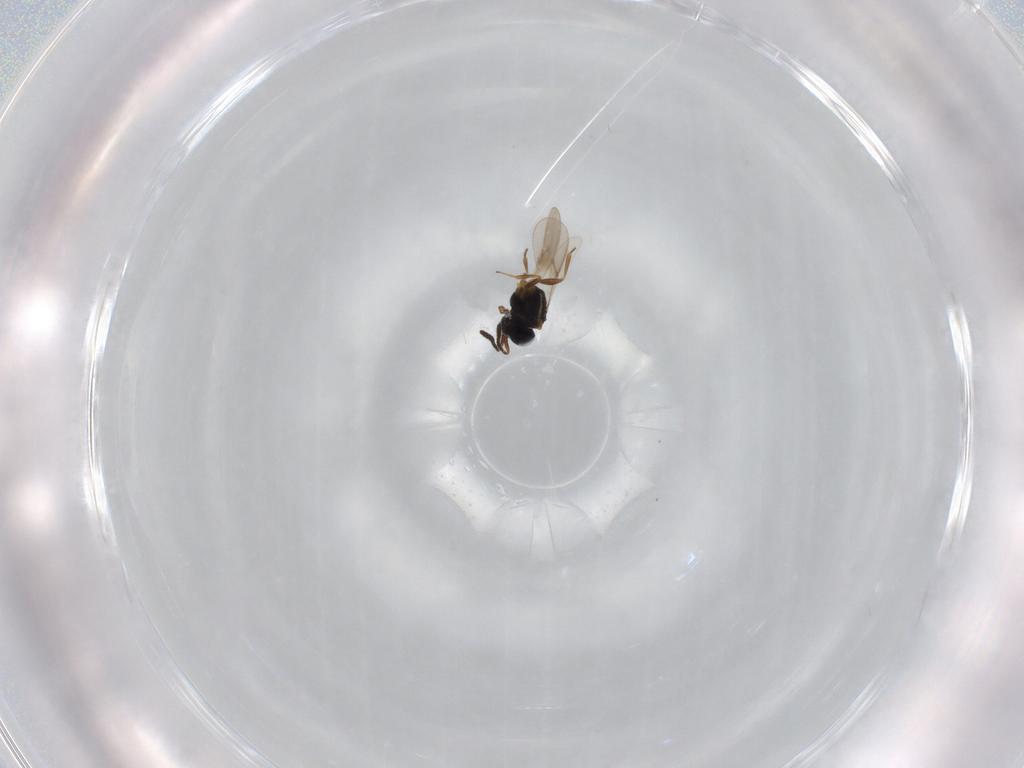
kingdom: Animalia
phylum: Arthropoda
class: Insecta
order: Hymenoptera
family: Scelionidae
